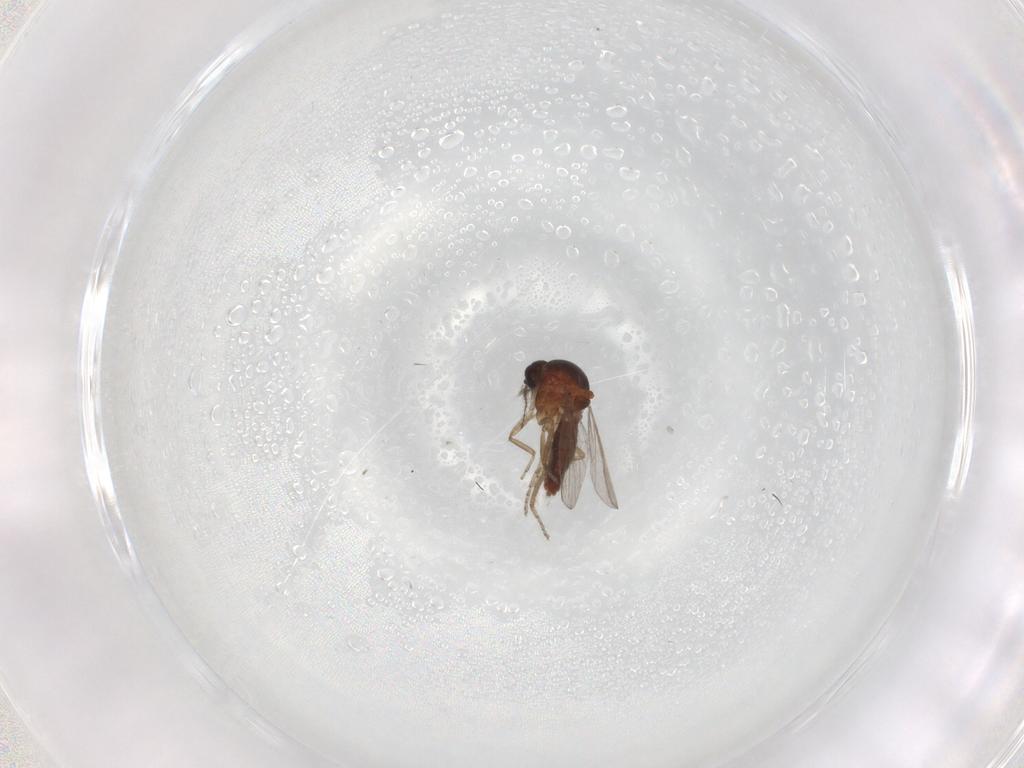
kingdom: Animalia
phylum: Arthropoda
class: Insecta
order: Diptera
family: Ceratopogonidae
